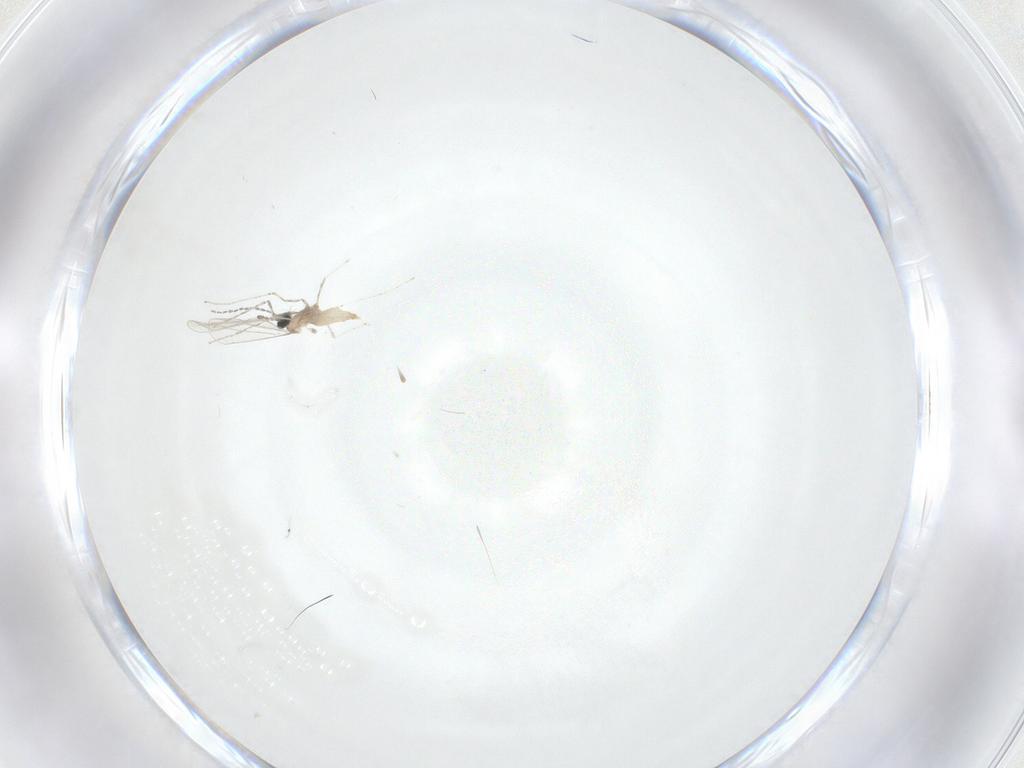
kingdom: Animalia
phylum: Arthropoda
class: Insecta
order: Diptera
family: Cecidomyiidae
